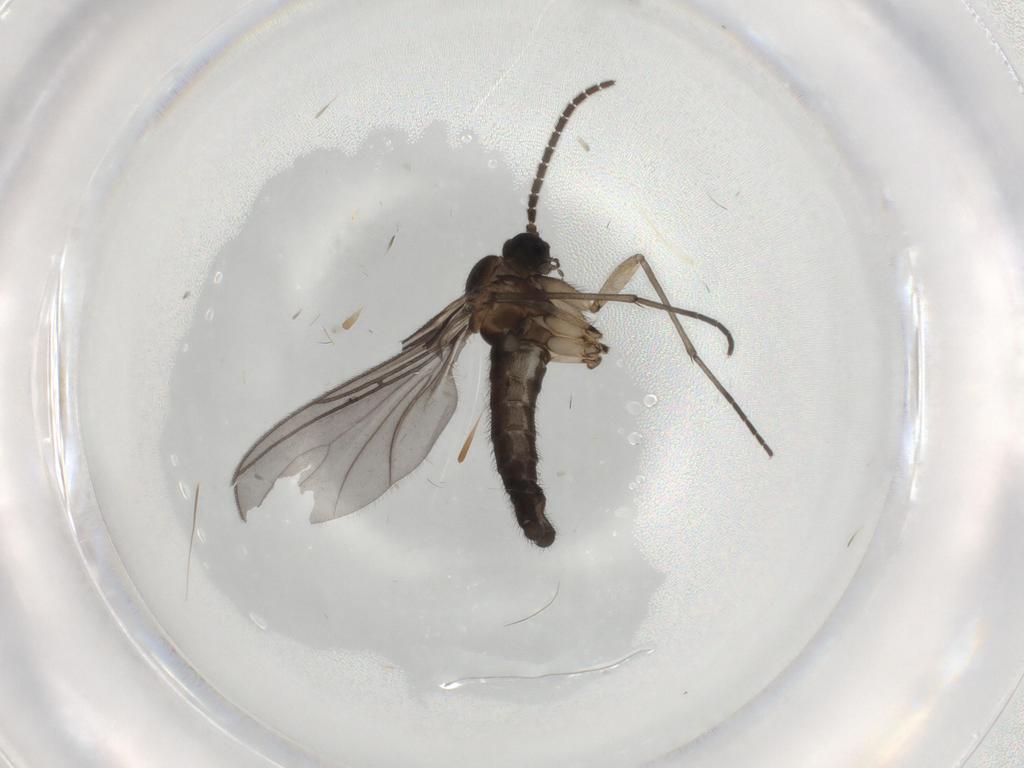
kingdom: Animalia
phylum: Arthropoda
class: Insecta
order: Diptera
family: Sciaridae
